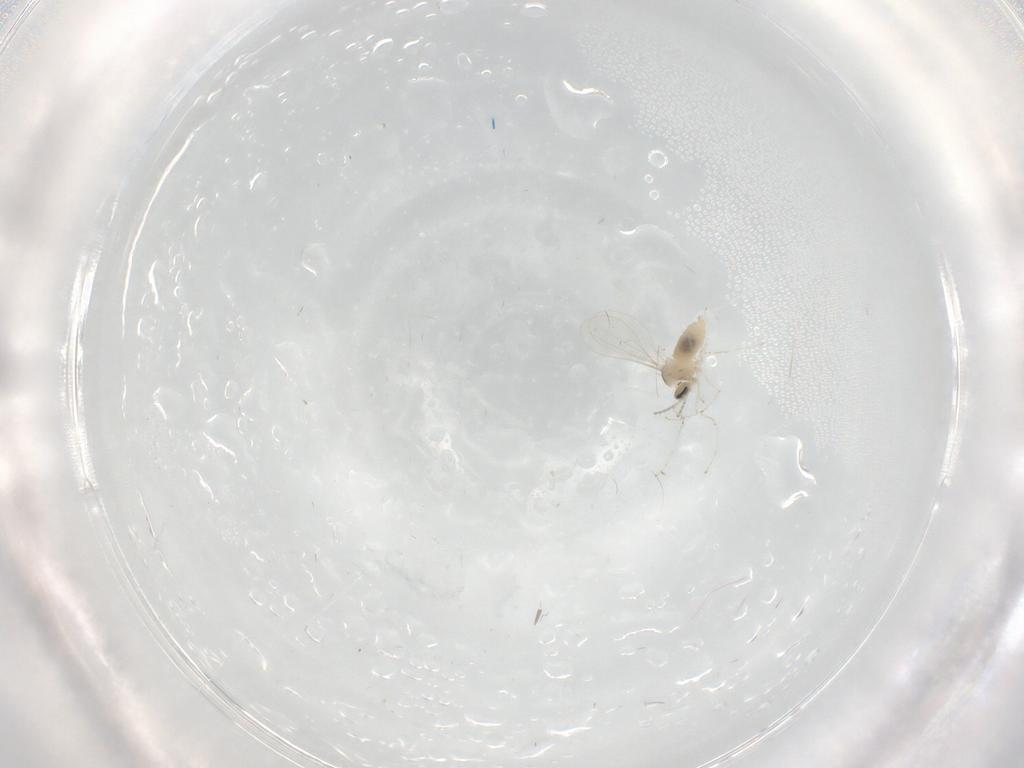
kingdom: Animalia
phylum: Arthropoda
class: Insecta
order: Diptera
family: Cecidomyiidae
